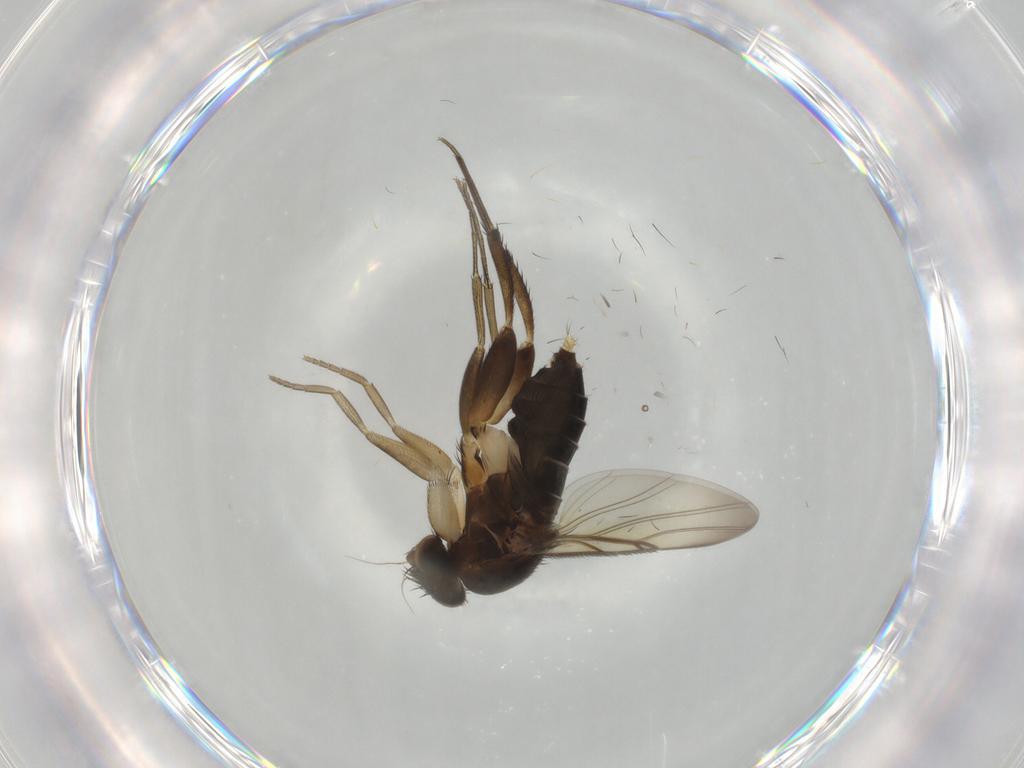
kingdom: Animalia
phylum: Arthropoda
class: Insecta
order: Diptera
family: Phoridae
